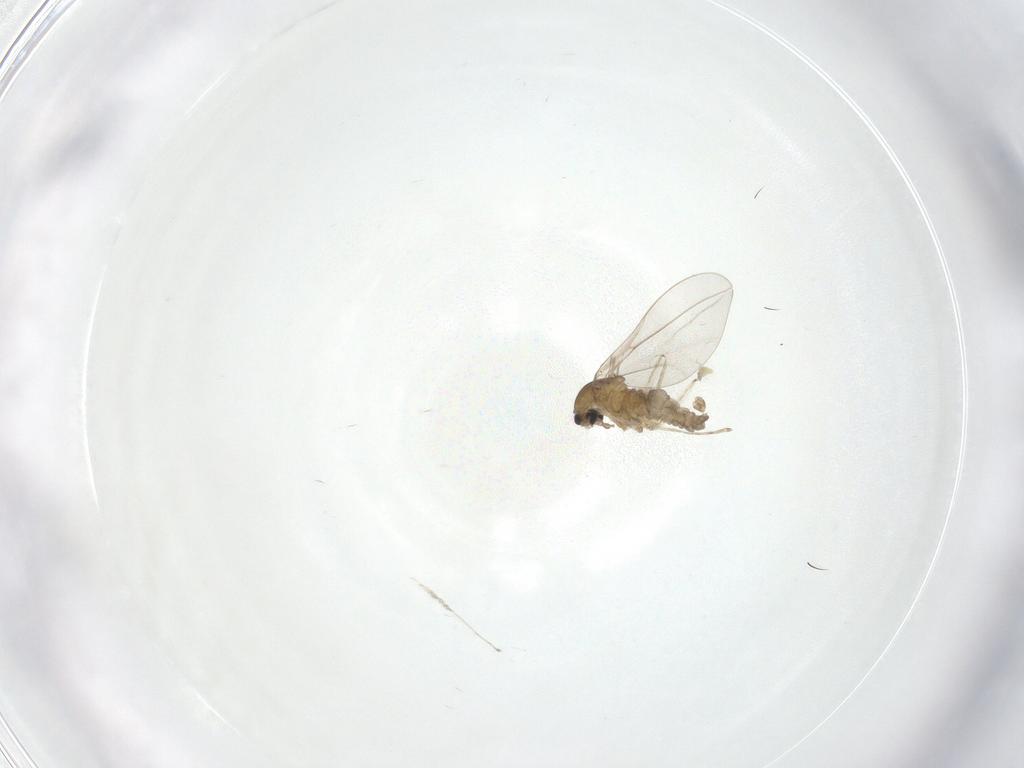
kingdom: Animalia
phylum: Arthropoda
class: Insecta
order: Diptera
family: Cecidomyiidae
